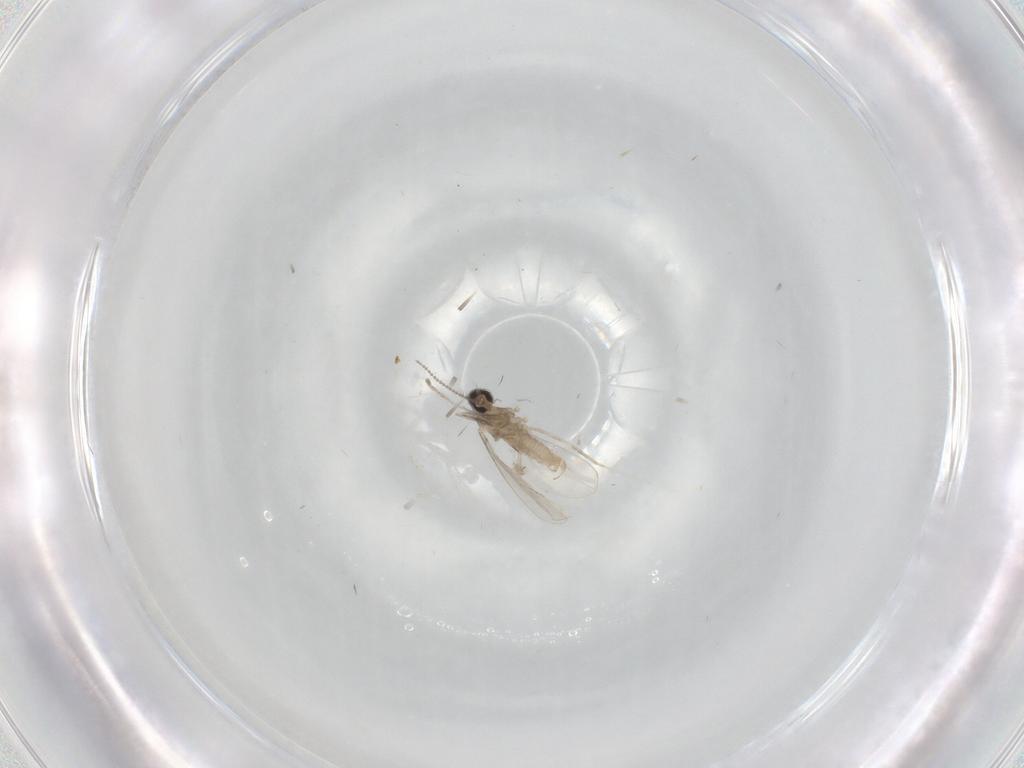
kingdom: Animalia
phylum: Arthropoda
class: Insecta
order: Diptera
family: Cecidomyiidae
